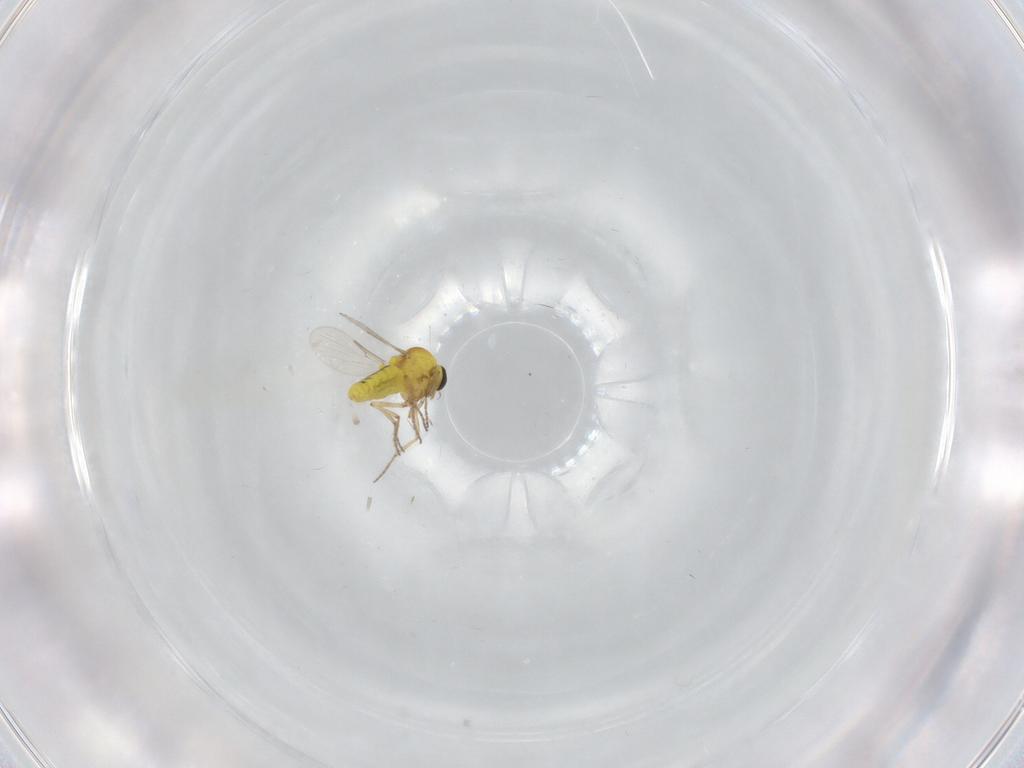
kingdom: Animalia
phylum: Arthropoda
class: Insecta
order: Diptera
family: Ceratopogonidae
